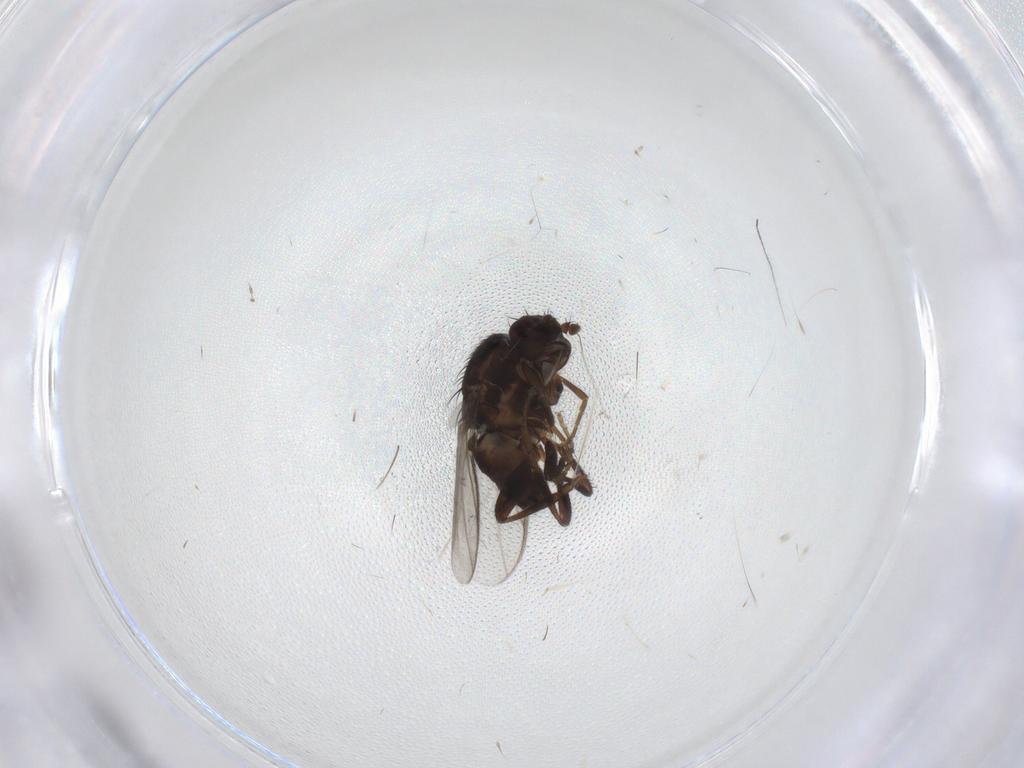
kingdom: Animalia
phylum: Arthropoda
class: Insecta
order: Diptera
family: Sphaeroceridae
